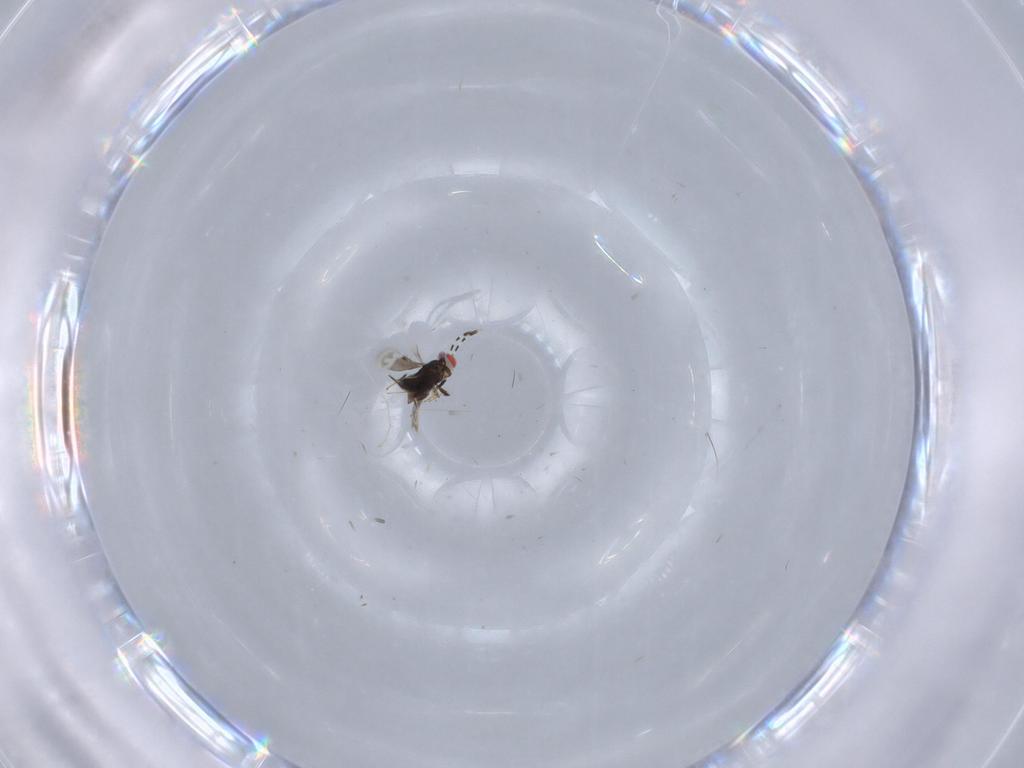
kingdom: Animalia
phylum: Arthropoda
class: Insecta
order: Hymenoptera
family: Azotidae
